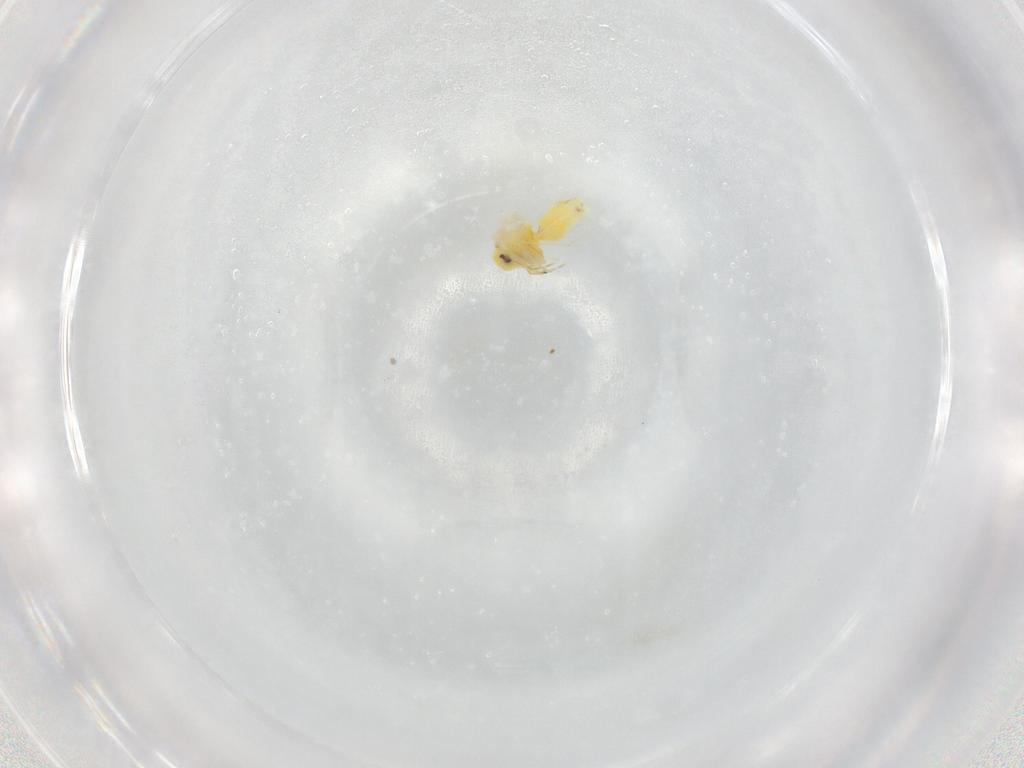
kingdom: Animalia
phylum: Arthropoda
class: Insecta
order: Hemiptera
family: Aleyrodidae
